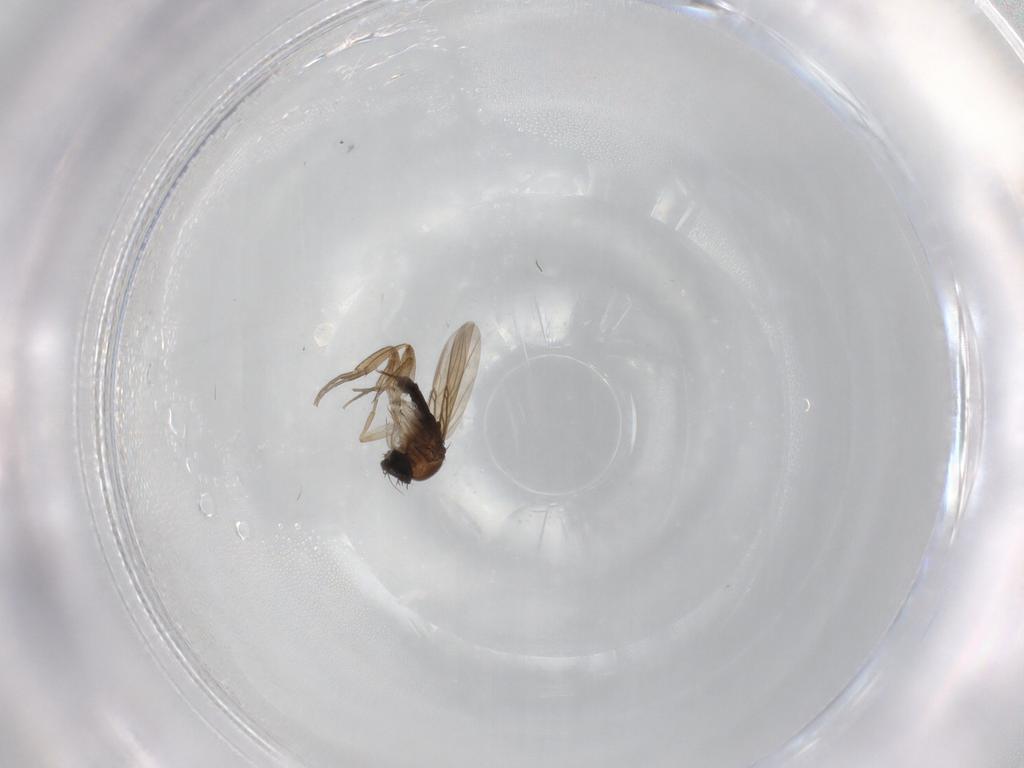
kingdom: Animalia
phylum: Arthropoda
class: Insecta
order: Diptera
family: Phoridae
